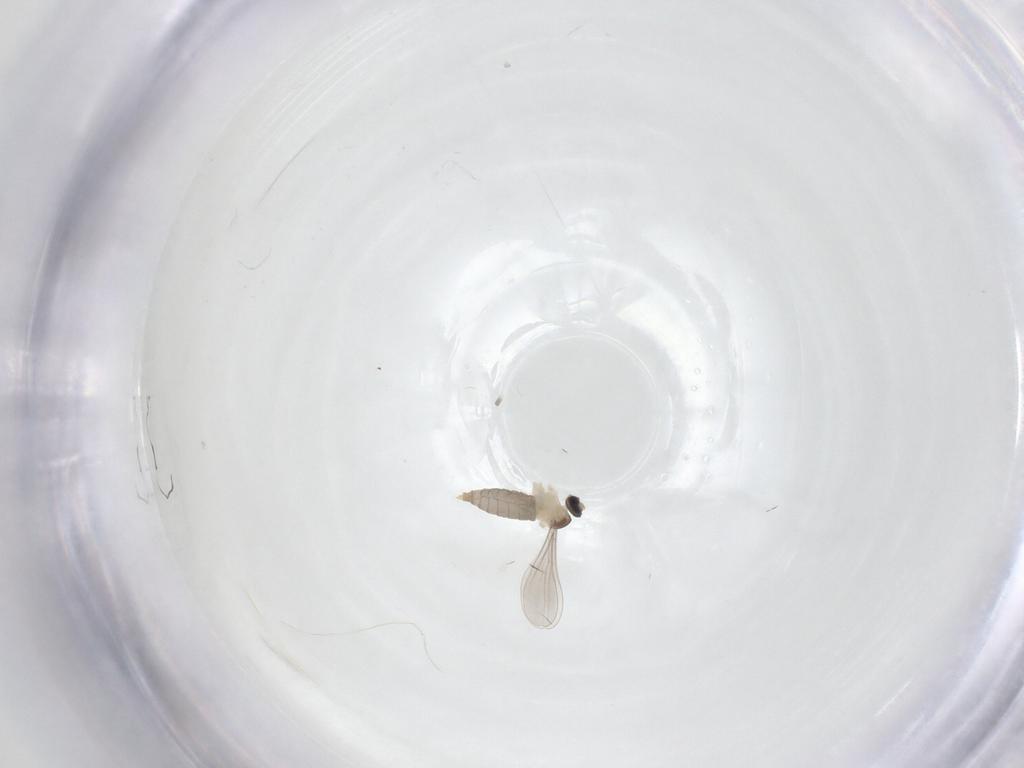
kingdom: Animalia
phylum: Arthropoda
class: Insecta
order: Diptera
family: Cecidomyiidae
